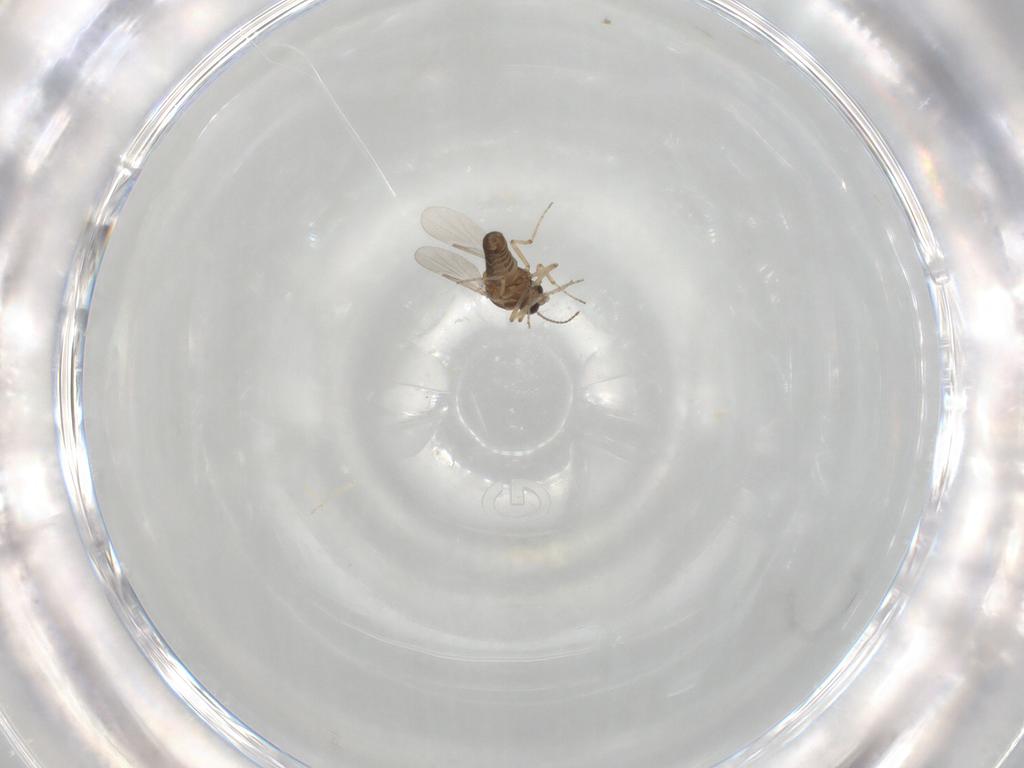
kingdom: Animalia
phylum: Arthropoda
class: Insecta
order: Diptera
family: Ceratopogonidae
